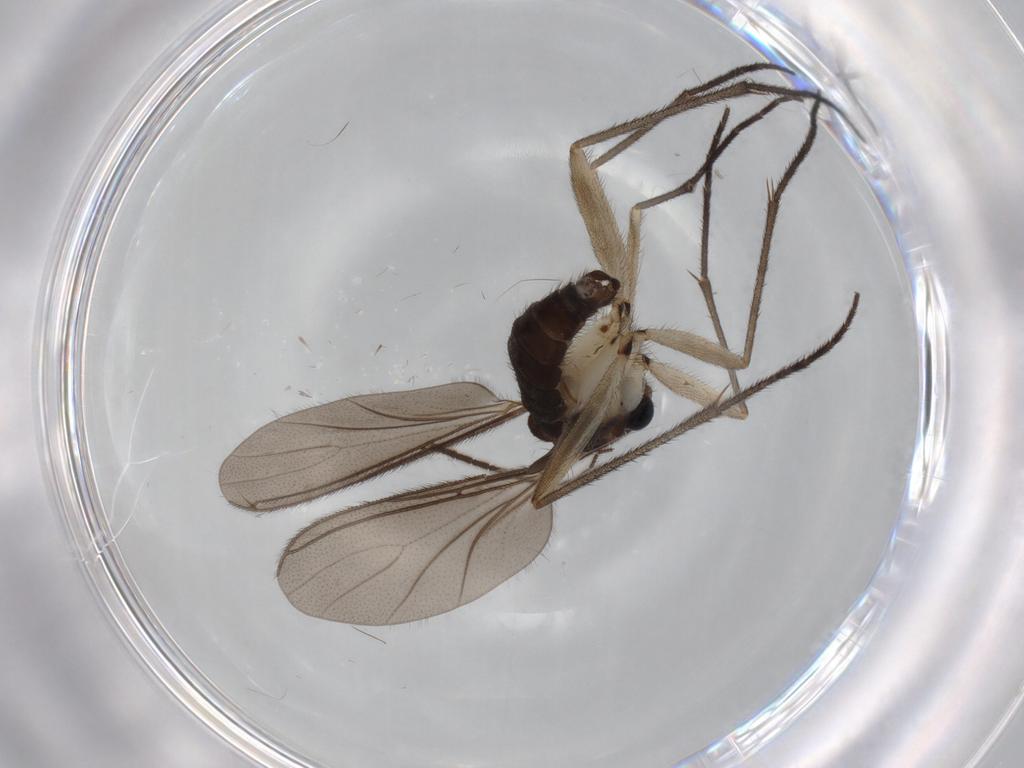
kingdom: Animalia
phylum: Arthropoda
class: Insecta
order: Diptera
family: Sciaridae
